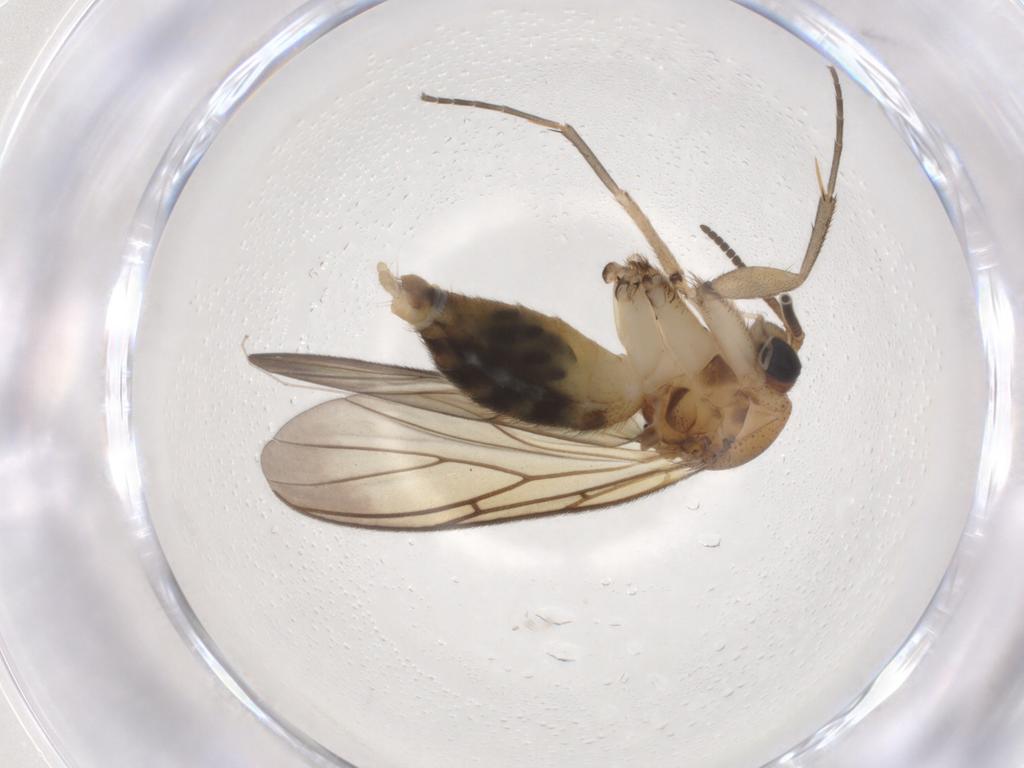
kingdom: Animalia
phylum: Arthropoda
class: Insecta
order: Diptera
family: Mycetophilidae
